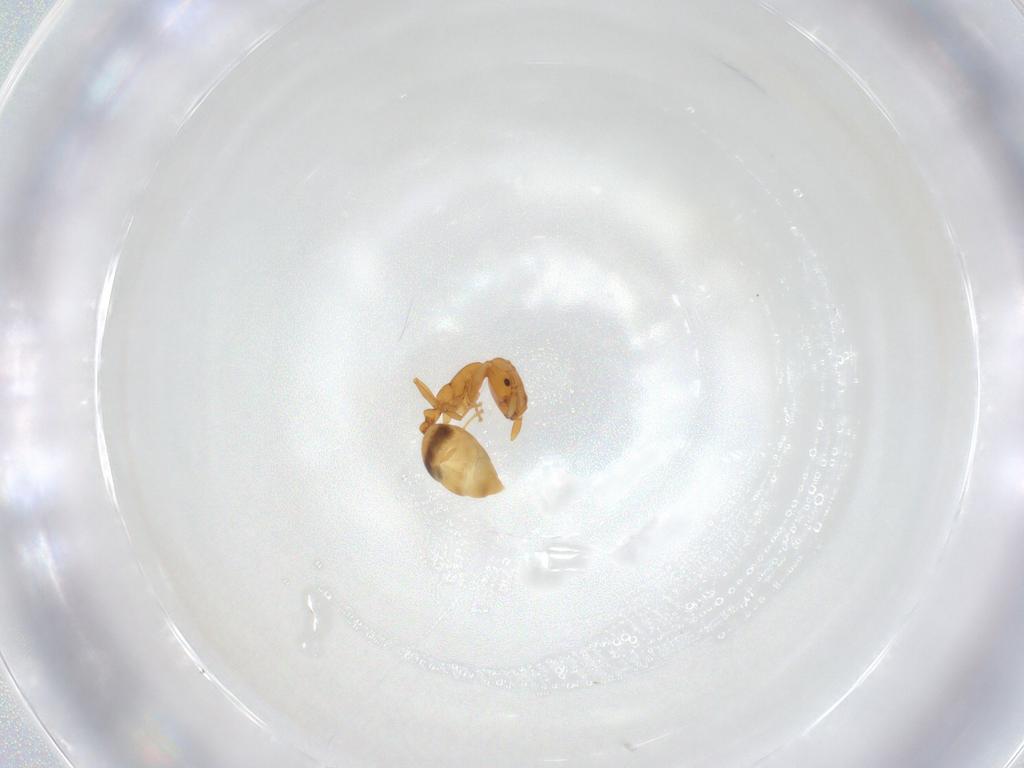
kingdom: Animalia
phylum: Arthropoda
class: Insecta
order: Hymenoptera
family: Formicidae
